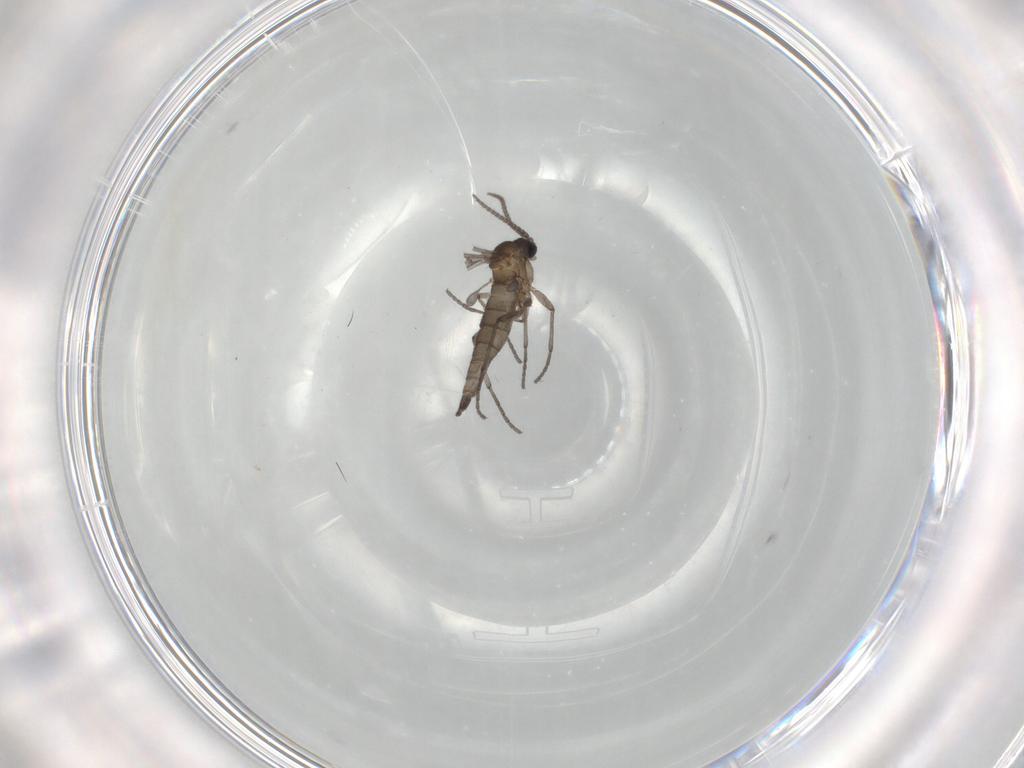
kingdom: Animalia
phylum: Arthropoda
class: Insecta
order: Diptera
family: Sciaridae
